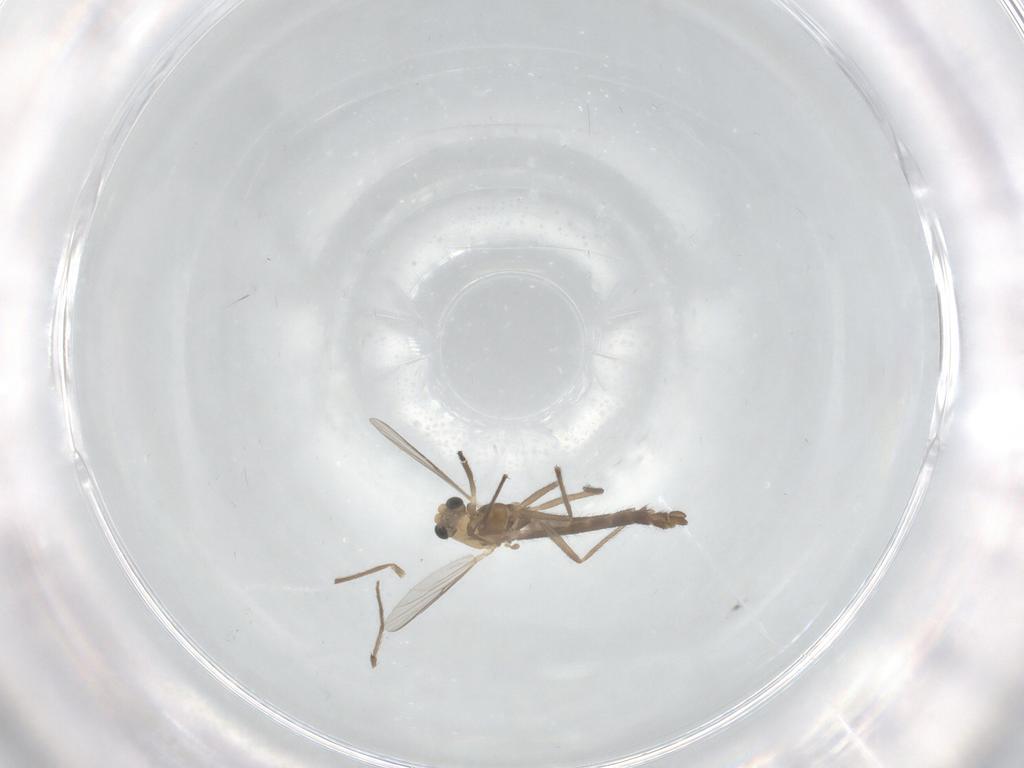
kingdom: Animalia
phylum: Arthropoda
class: Insecta
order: Diptera
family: Chironomidae
